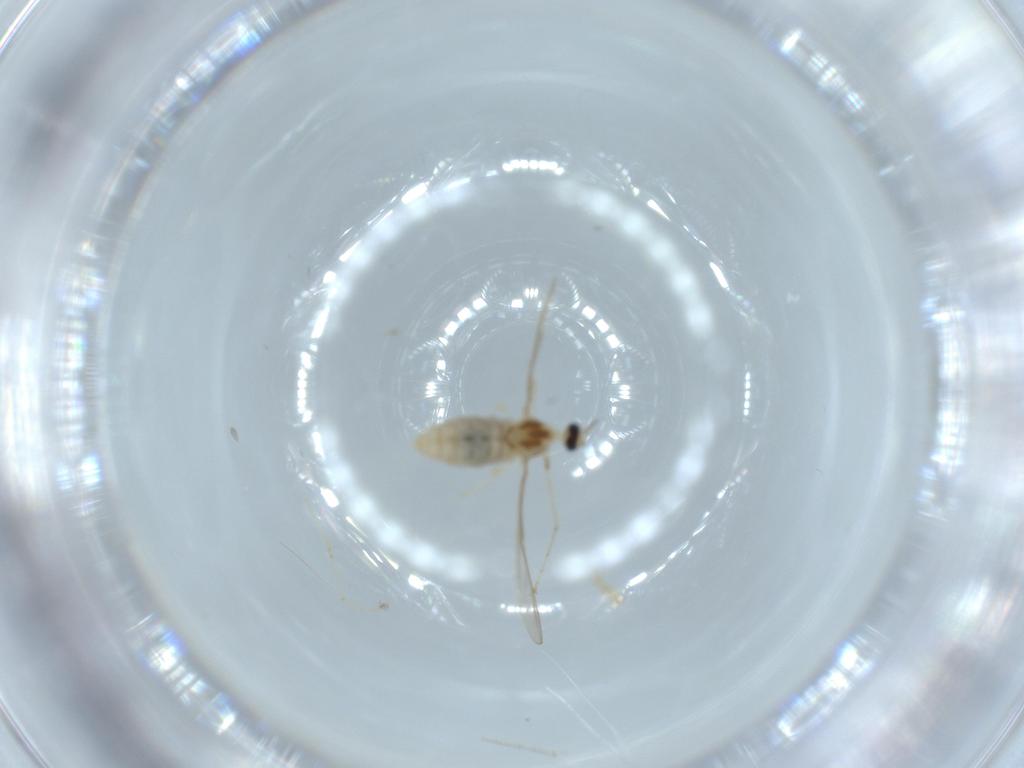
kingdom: Animalia
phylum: Arthropoda
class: Insecta
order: Diptera
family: Cecidomyiidae
